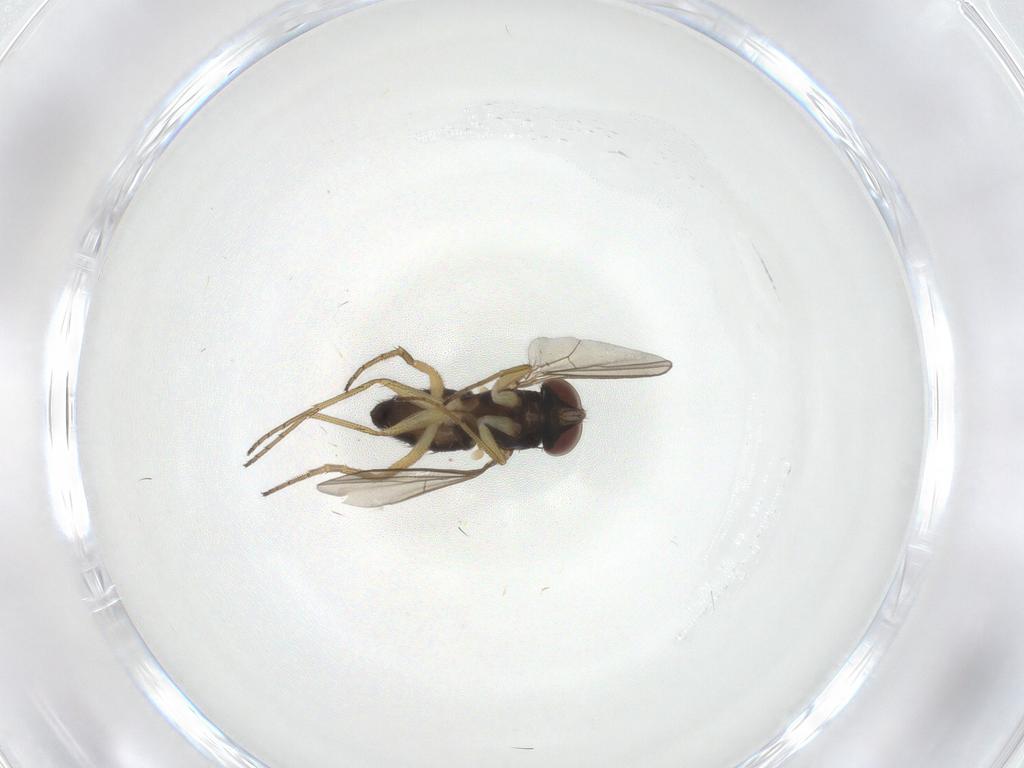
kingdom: Animalia
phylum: Arthropoda
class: Insecta
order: Diptera
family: Dolichopodidae
